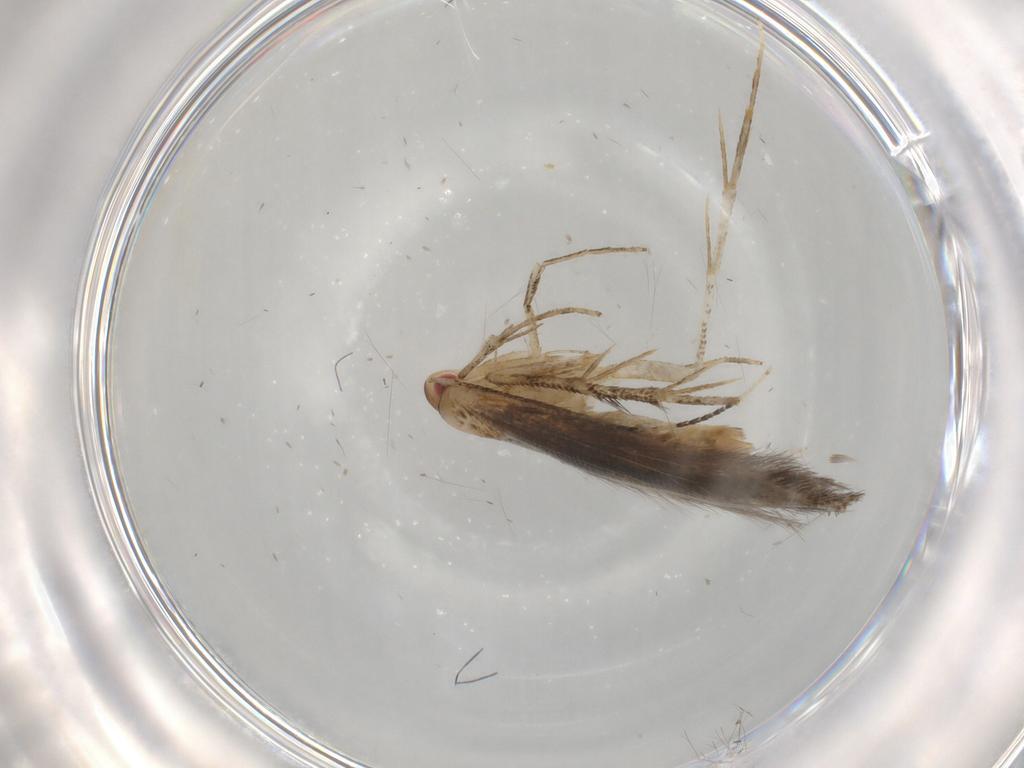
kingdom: Animalia
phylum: Arthropoda
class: Insecta
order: Lepidoptera
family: Cosmopterigidae
